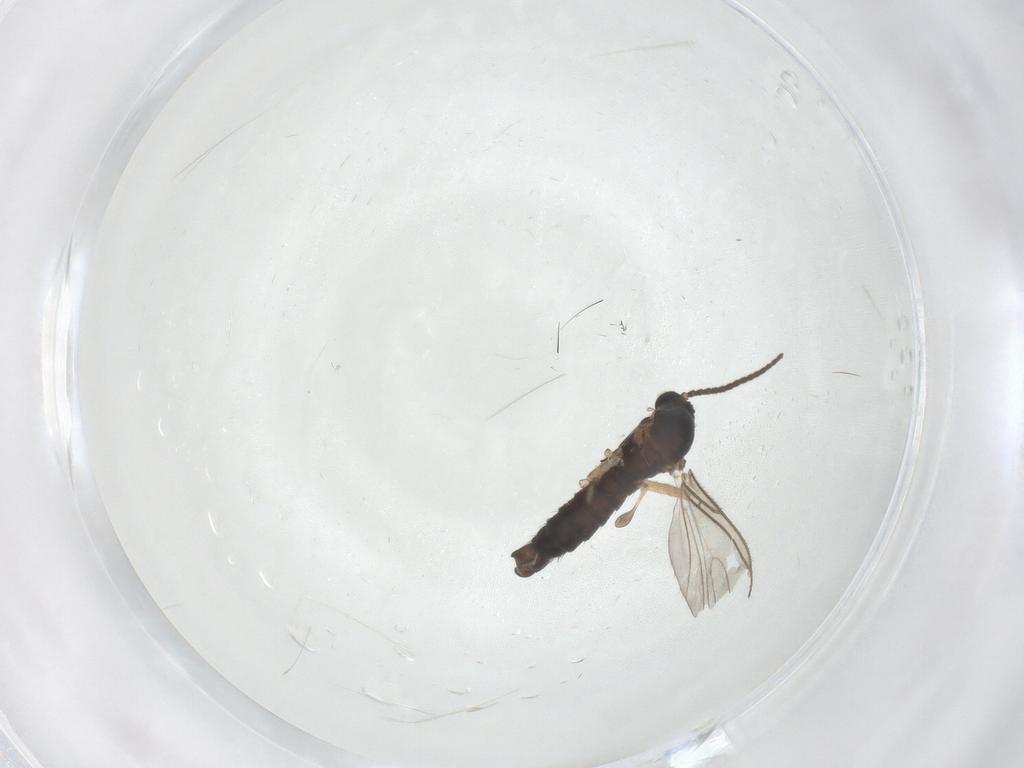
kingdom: Animalia
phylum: Arthropoda
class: Insecta
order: Diptera
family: Sciaridae
